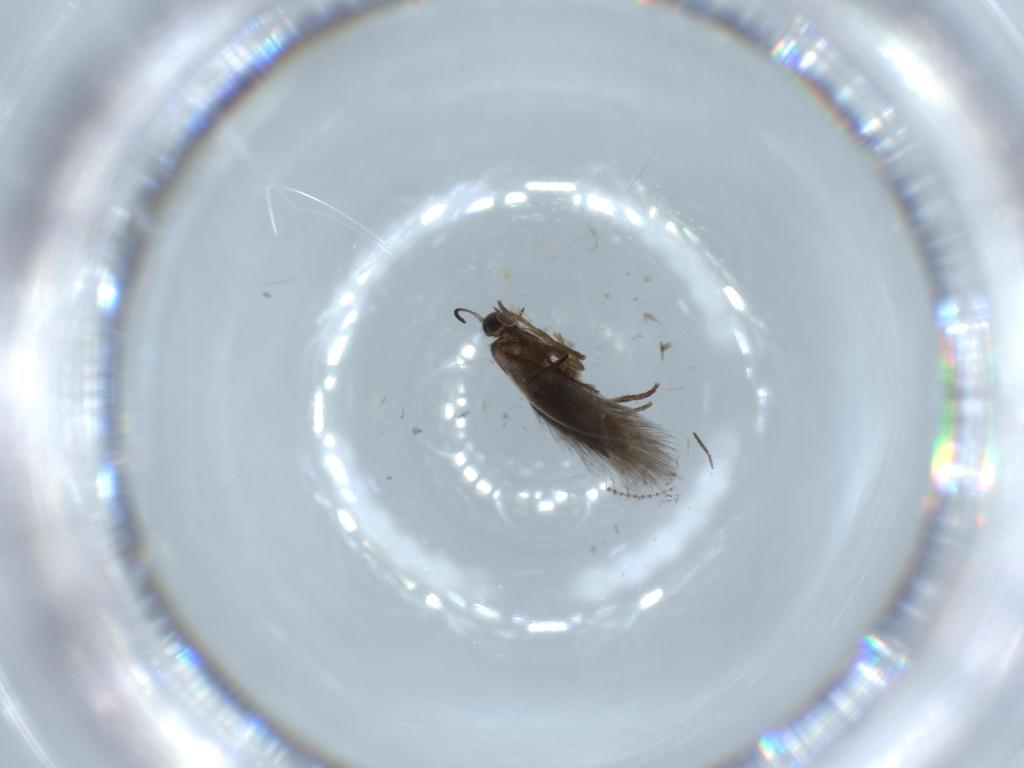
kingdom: Animalia
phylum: Arthropoda
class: Insecta
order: Lepidoptera
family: Heliozelidae
